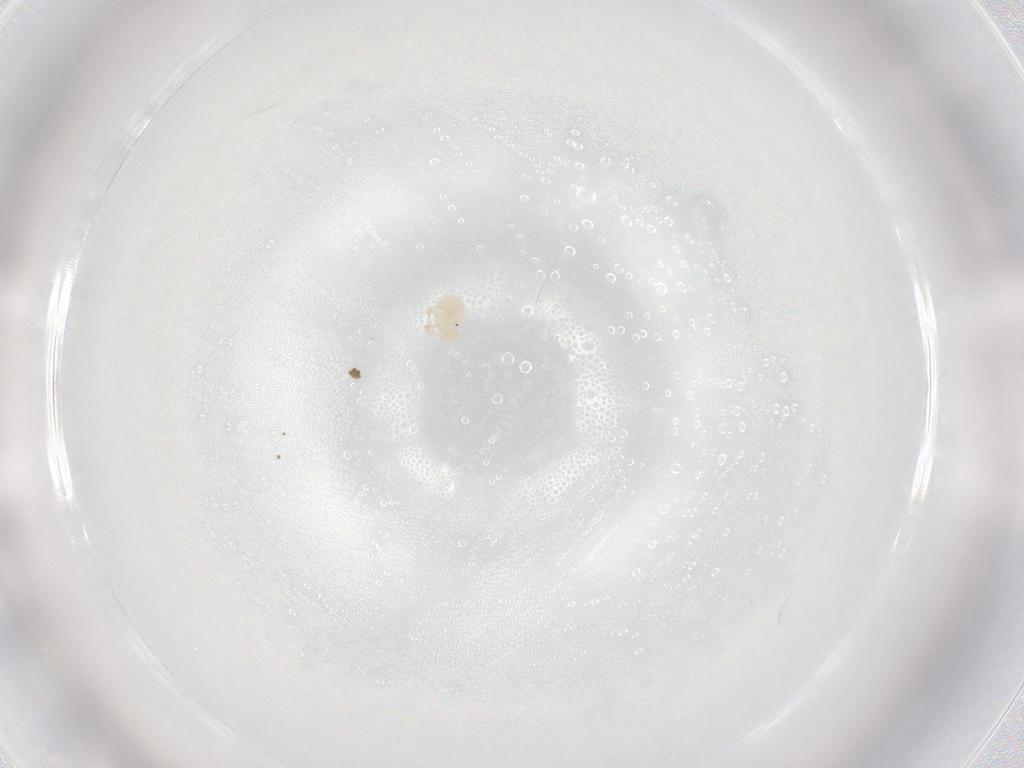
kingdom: Animalia
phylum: Arthropoda
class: Arachnida
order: Trombidiformes
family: Sperchontidae
